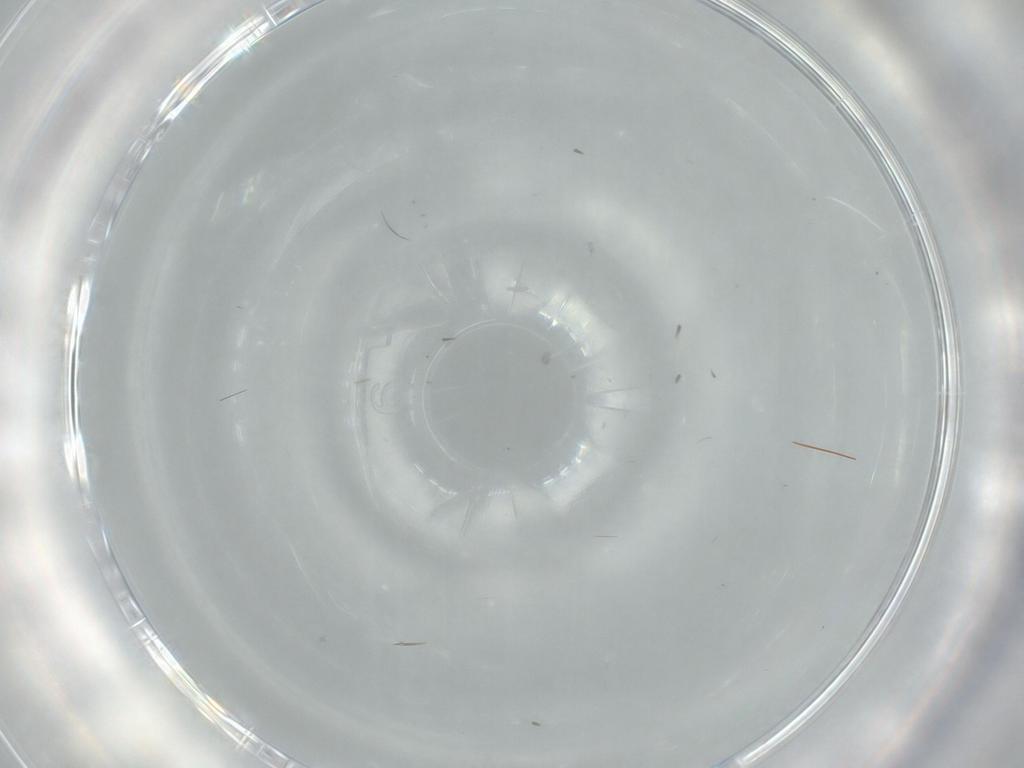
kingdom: Animalia
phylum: Arthropoda
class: Insecta
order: Diptera
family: Cecidomyiidae
